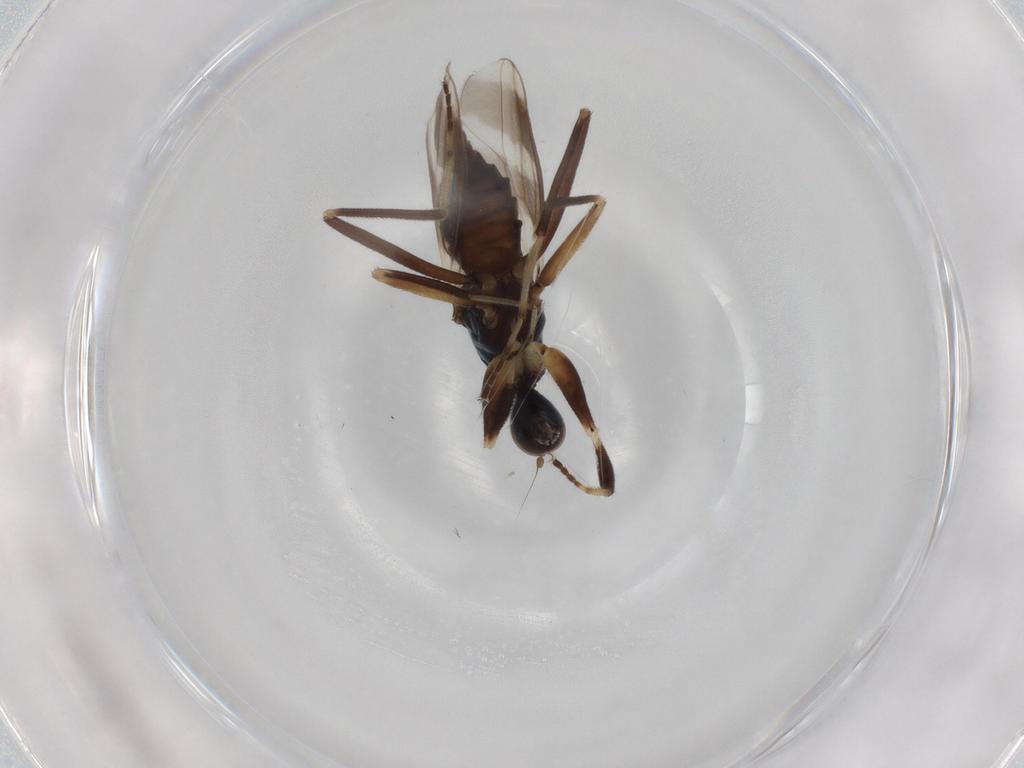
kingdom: Animalia
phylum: Arthropoda
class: Insecta
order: Diptera
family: Hybotidae
